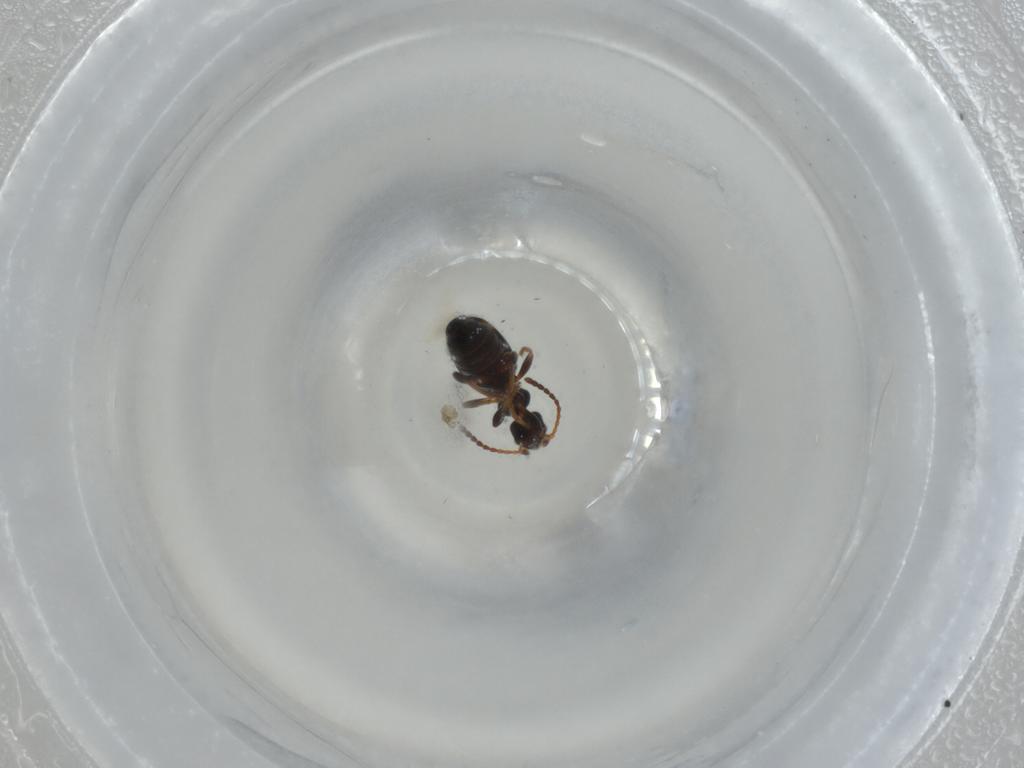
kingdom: Animalia
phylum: Arthropoda
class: Insecta
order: Coleoptera
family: Anthicidae
